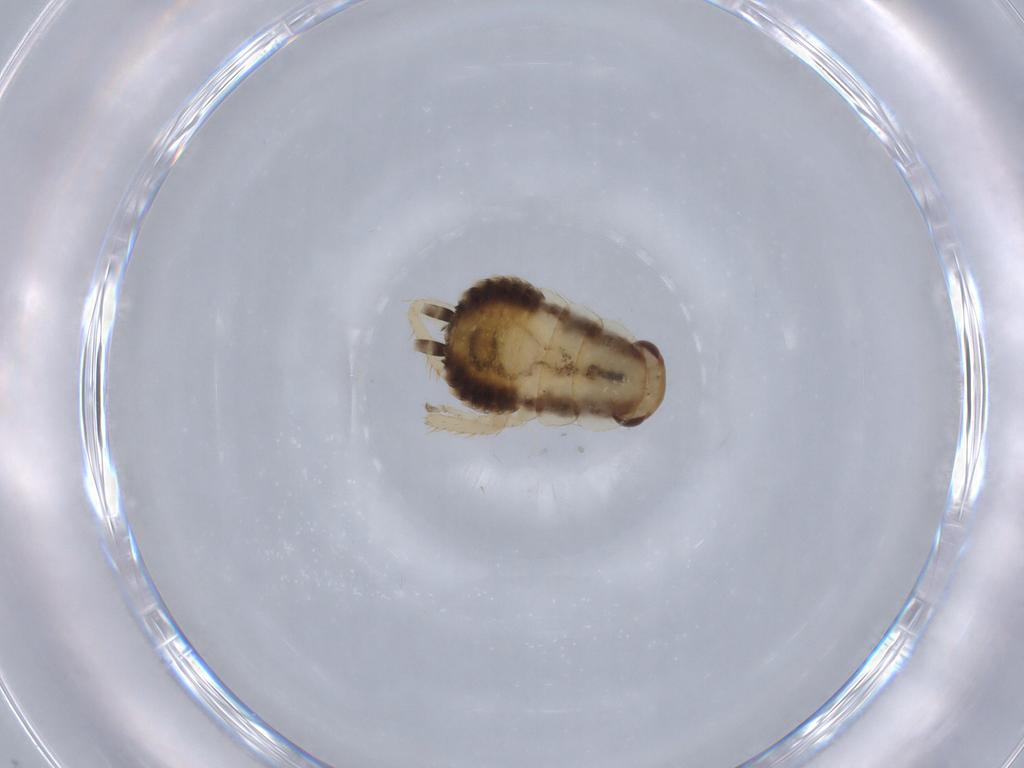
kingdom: Animalia
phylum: Arthropoda
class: Insecta
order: Blattodea
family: Ectobiidae
